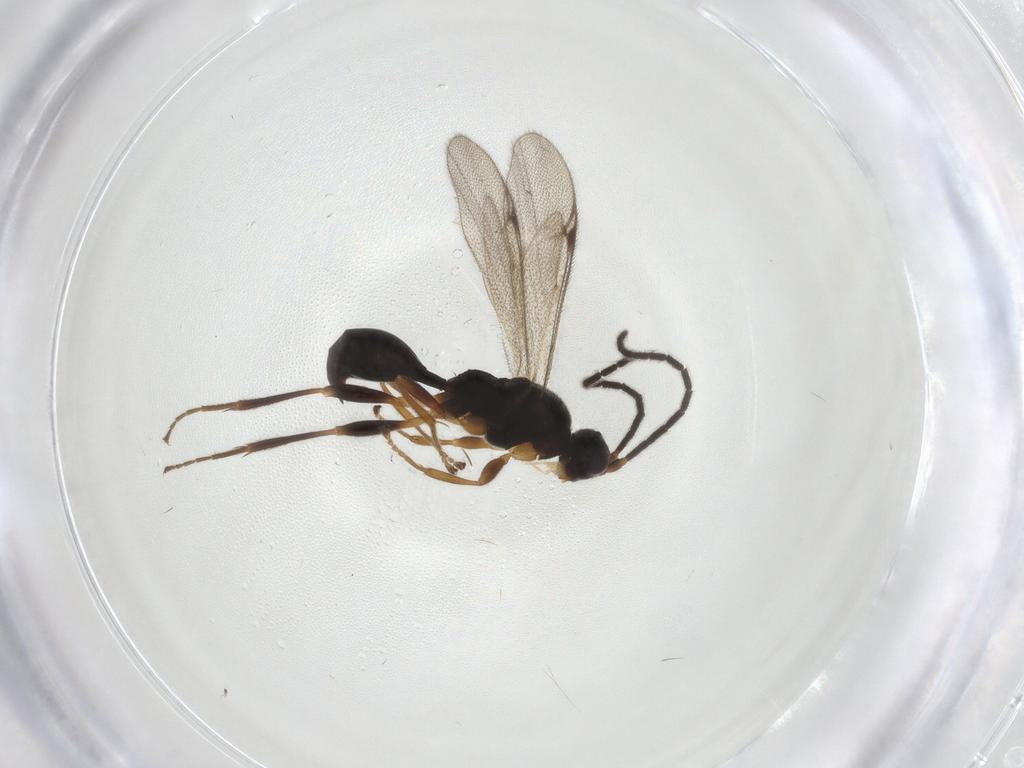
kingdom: Animalia
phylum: Arthropoda
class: Insecta
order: Hymenoptera
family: Proctotrupidae
